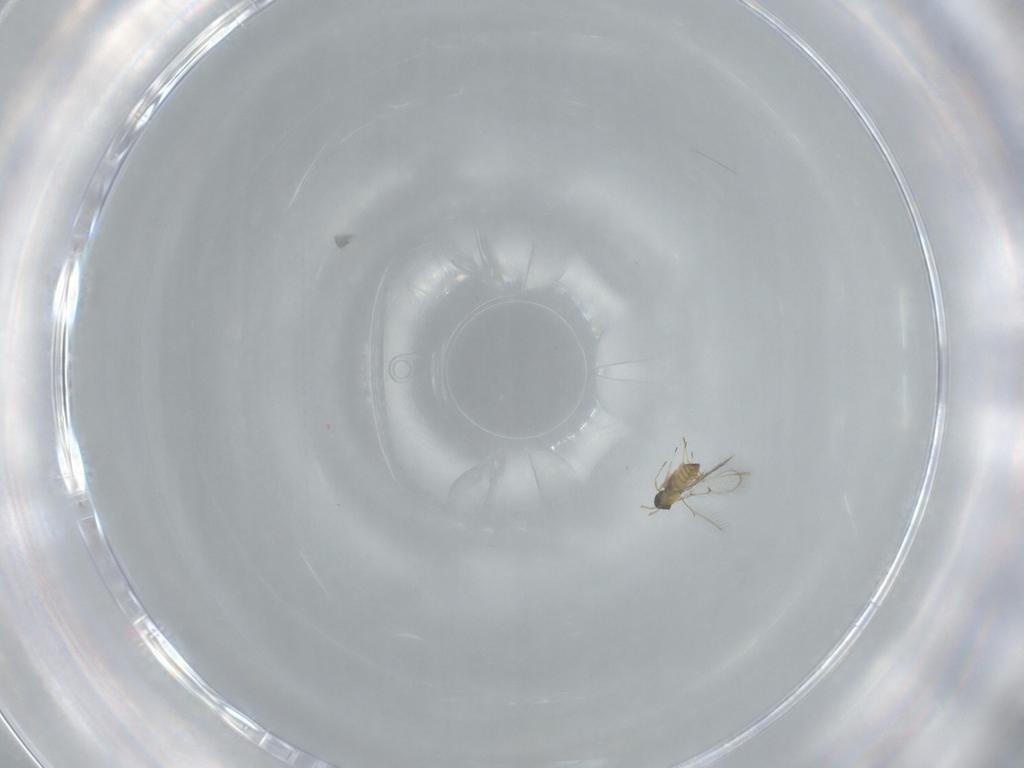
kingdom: Animalia
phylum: Arthropoda
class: Insecta
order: Hymenoptera
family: Trichogrammatidae
